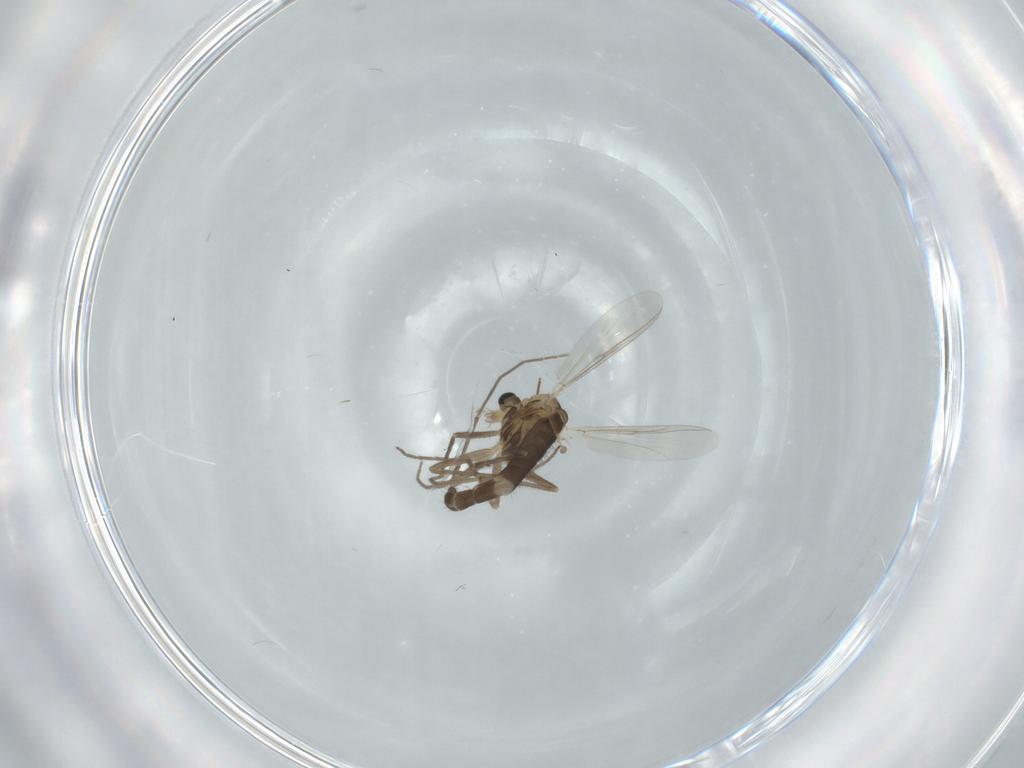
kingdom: Animalia
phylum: Arthropoda
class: Insecta
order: Diptera
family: Chironomidae
